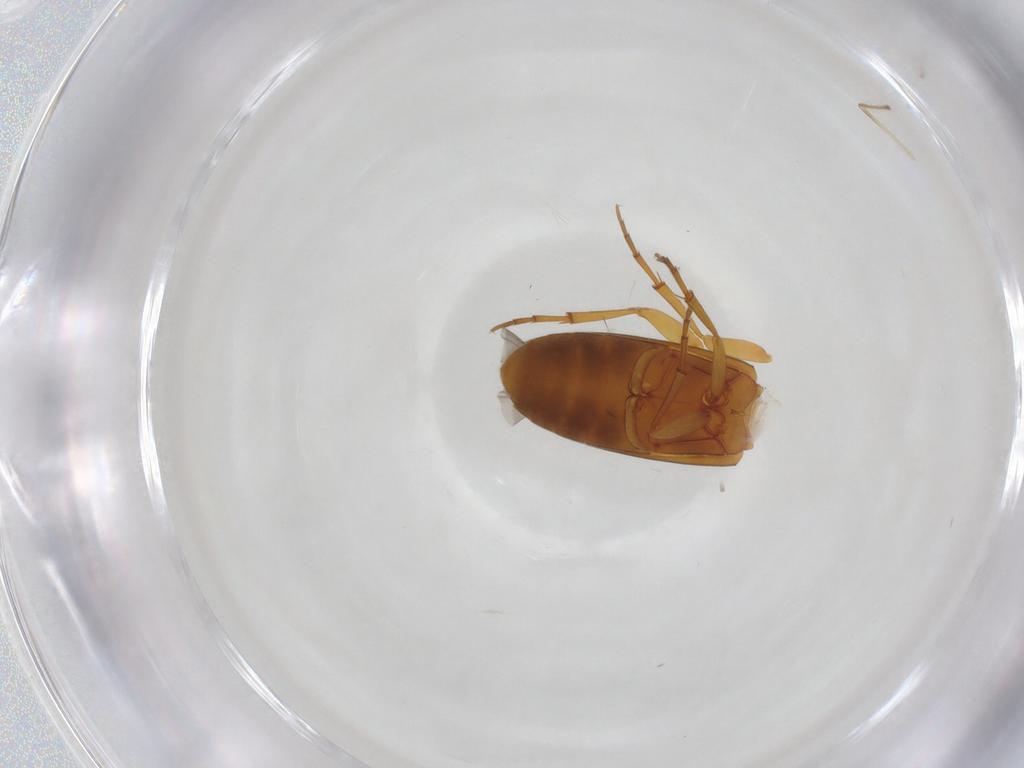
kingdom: Animalia
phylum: Arthropoda
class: Insecta
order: Coleoptera
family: Scraptiidae
